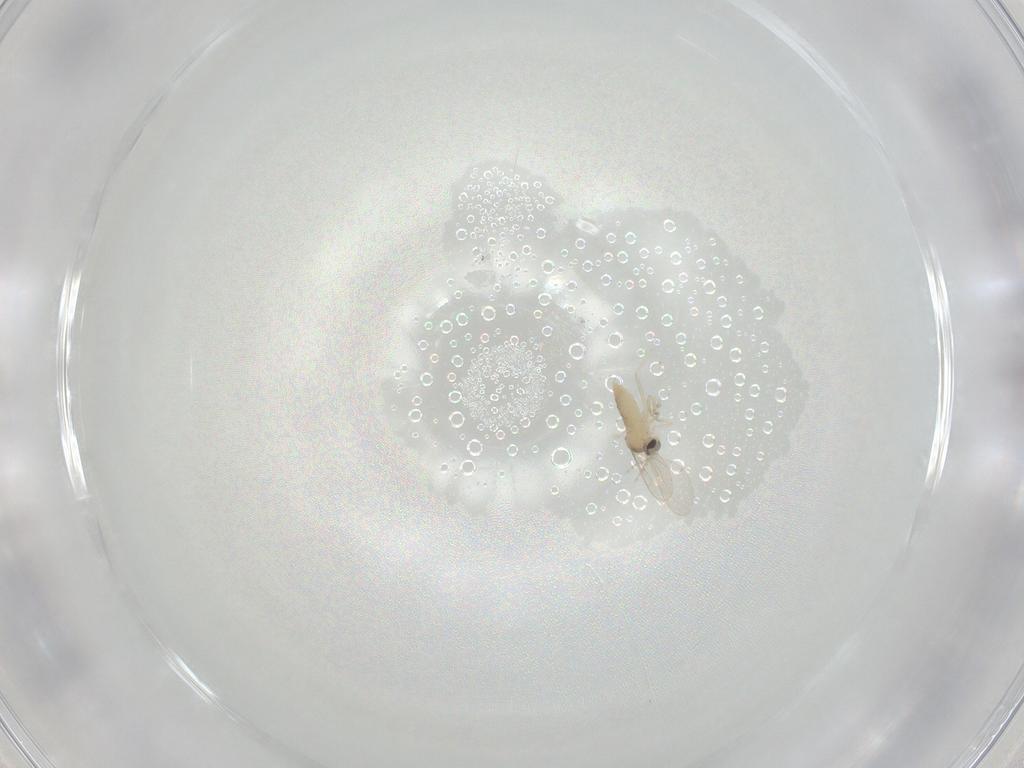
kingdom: Animalia
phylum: Arthropoda
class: Insecta
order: Diptera
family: Cecidomyiidae
